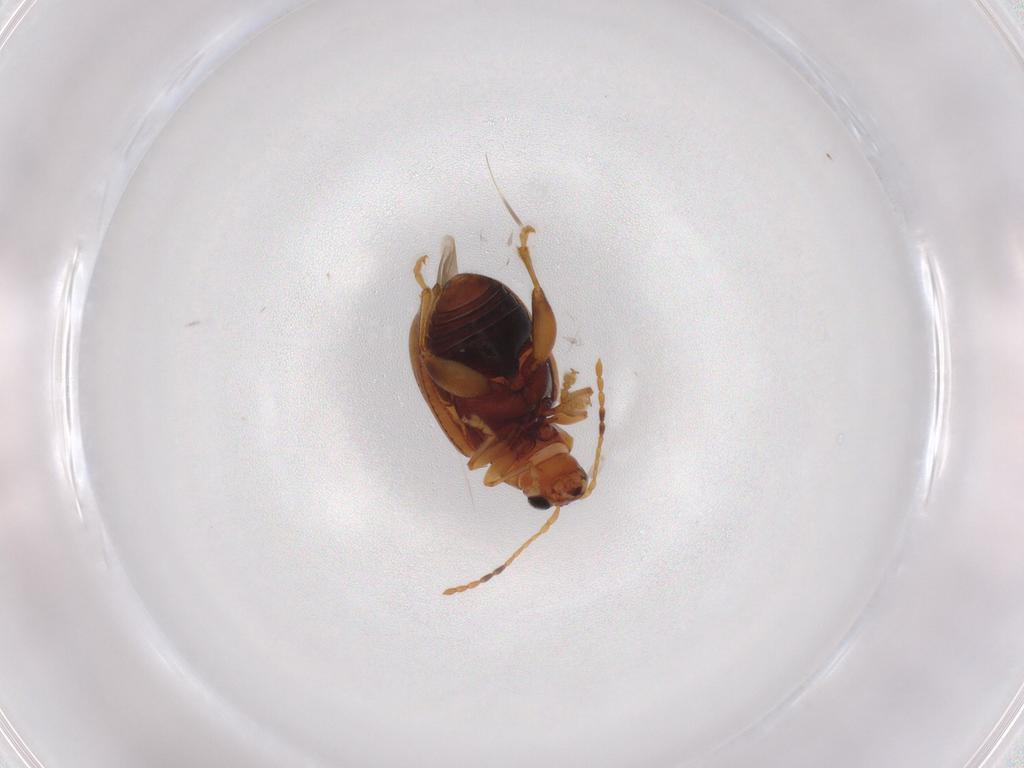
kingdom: Animalia
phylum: Arthropoda
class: Insecta
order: Coleoptera
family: Chrysomelidae
